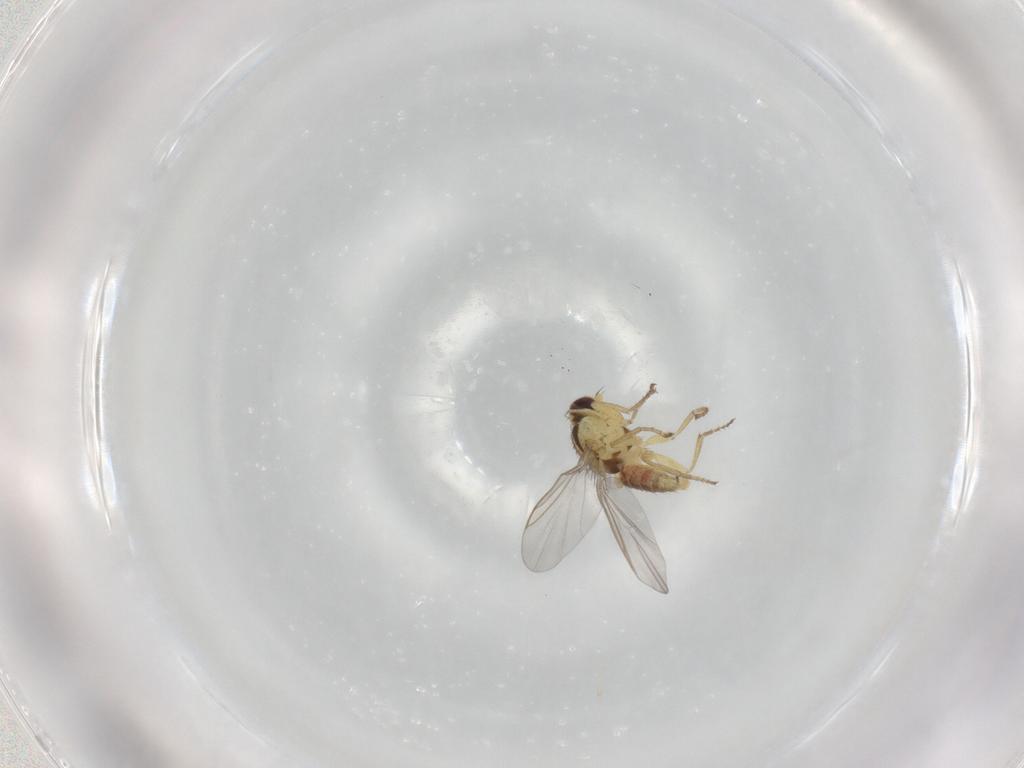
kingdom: Animalia
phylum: Arthropoda
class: Insecta
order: Diptera
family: Agromyzidae
